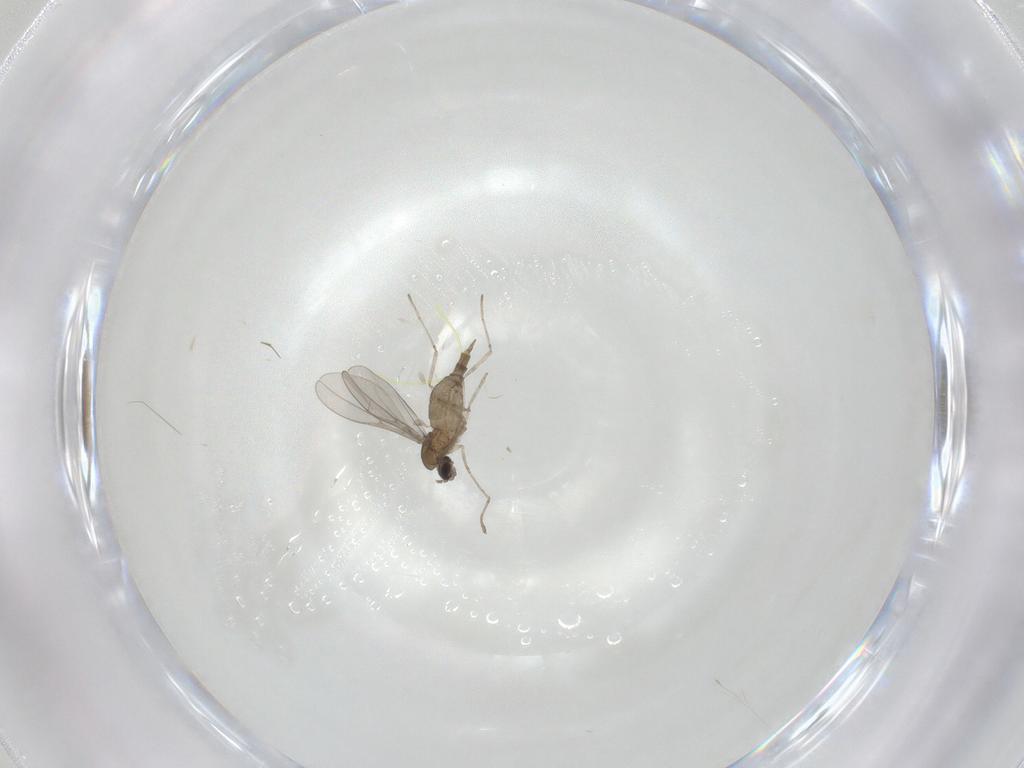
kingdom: Animalia
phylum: Arthropoda
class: Insecta
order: Diptera
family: Cecidomyiidae
